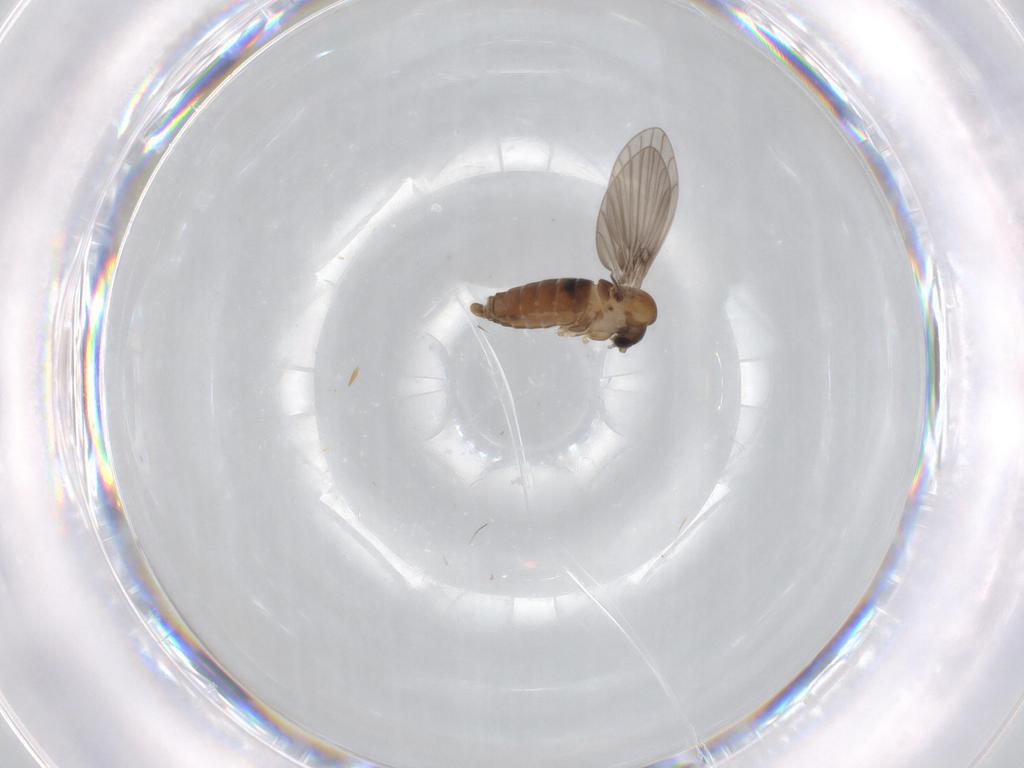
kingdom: Animalia
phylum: Arthropoda
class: Insecta
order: Diptera
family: Limoniidae
